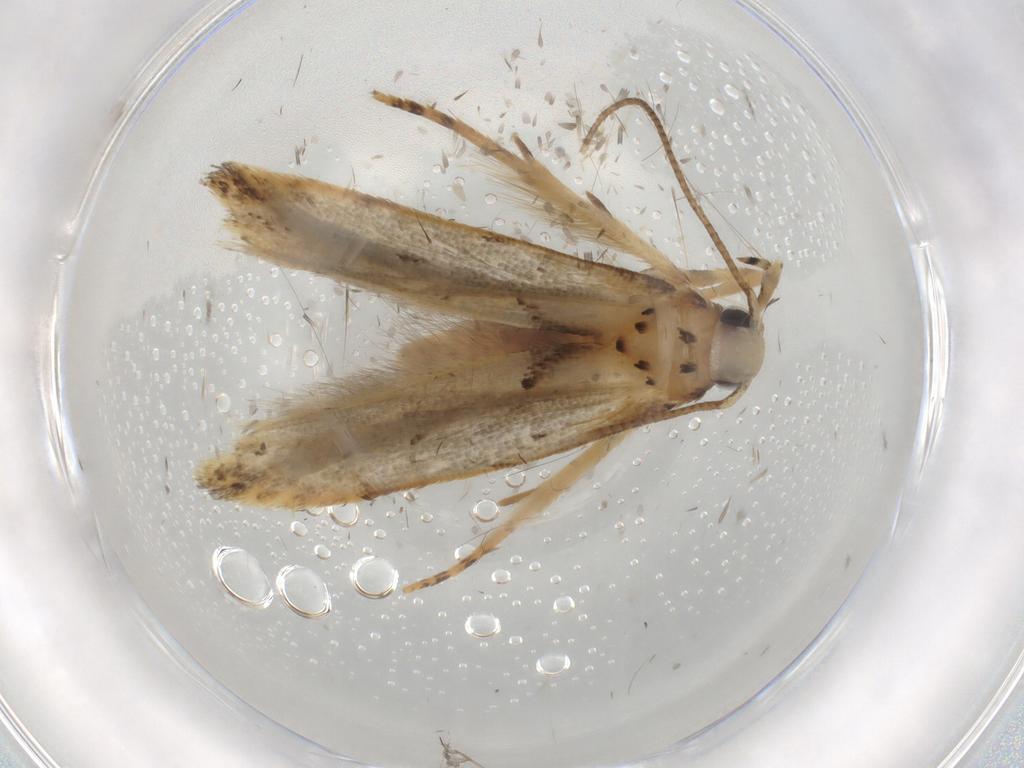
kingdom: Animalia
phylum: Arthropoda
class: Insecta
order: Lepidoptera
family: Gelechiidae
